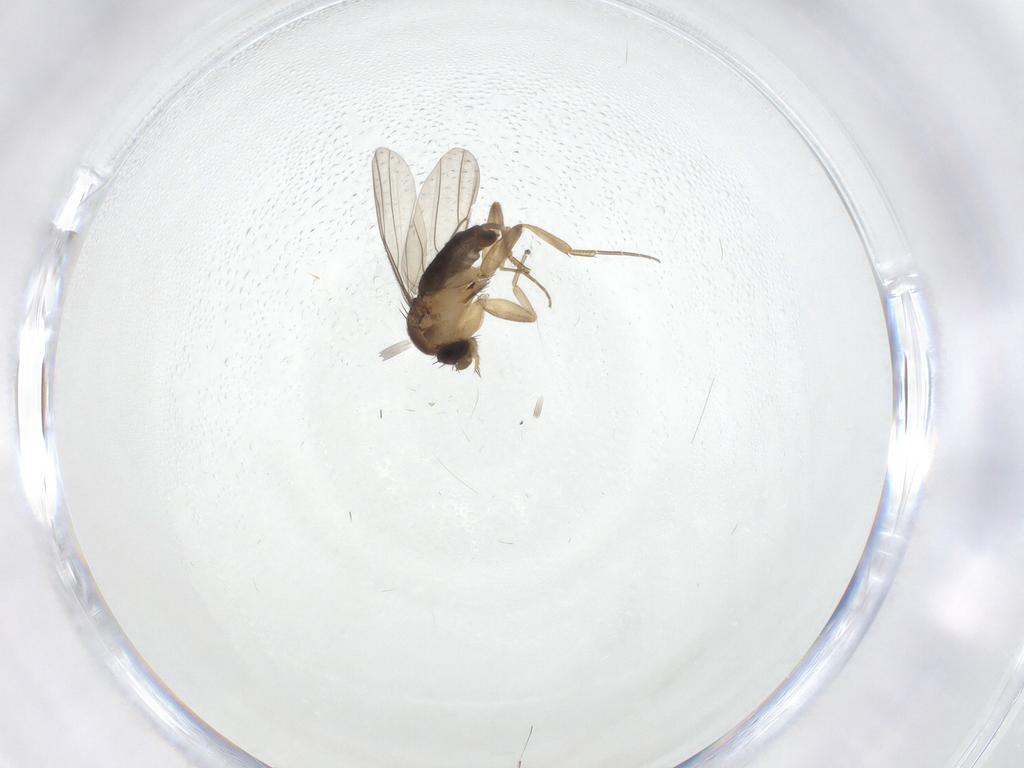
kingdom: Animalia
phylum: Arthropoda
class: Insecta
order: Diptera
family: Phoridae
